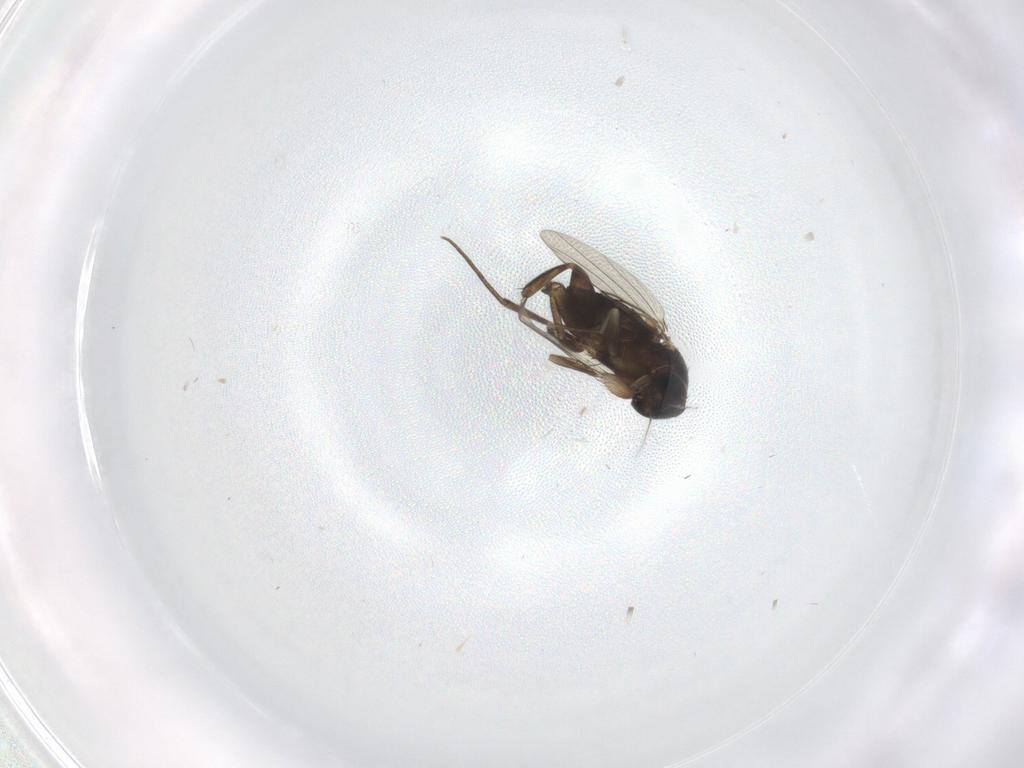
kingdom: Animalia
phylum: Arthropoda
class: Insecta
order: Diptera
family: Phoridae
